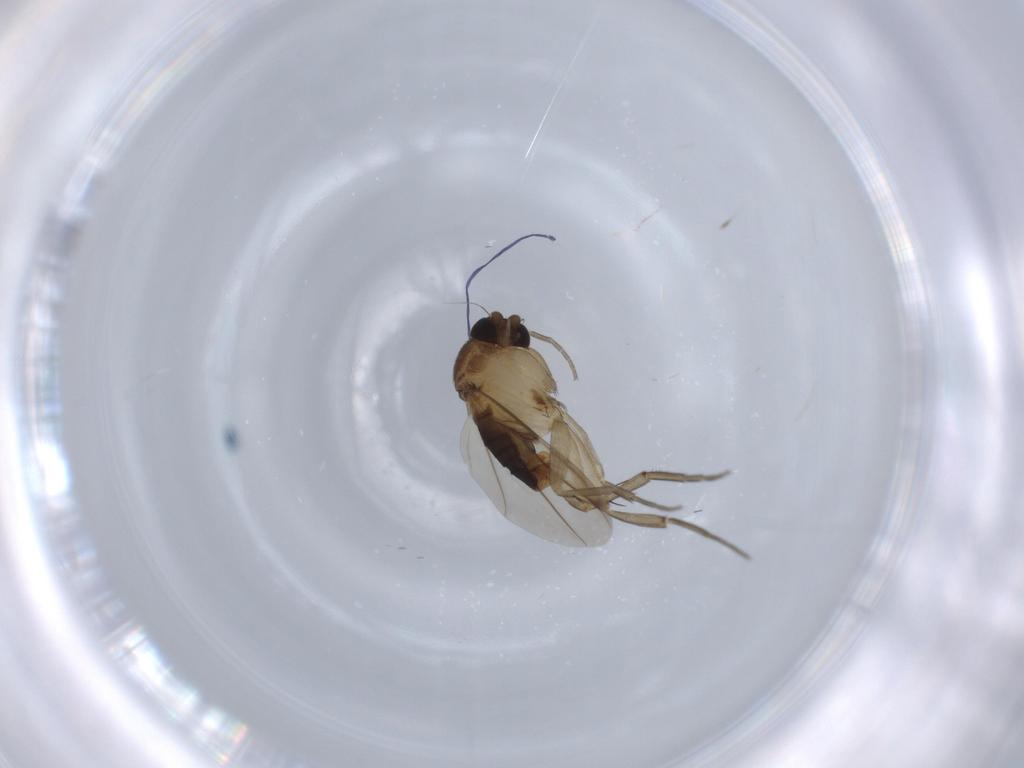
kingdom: Animalia
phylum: Arthropoda
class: Insecta
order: Diptera
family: Phoridae
